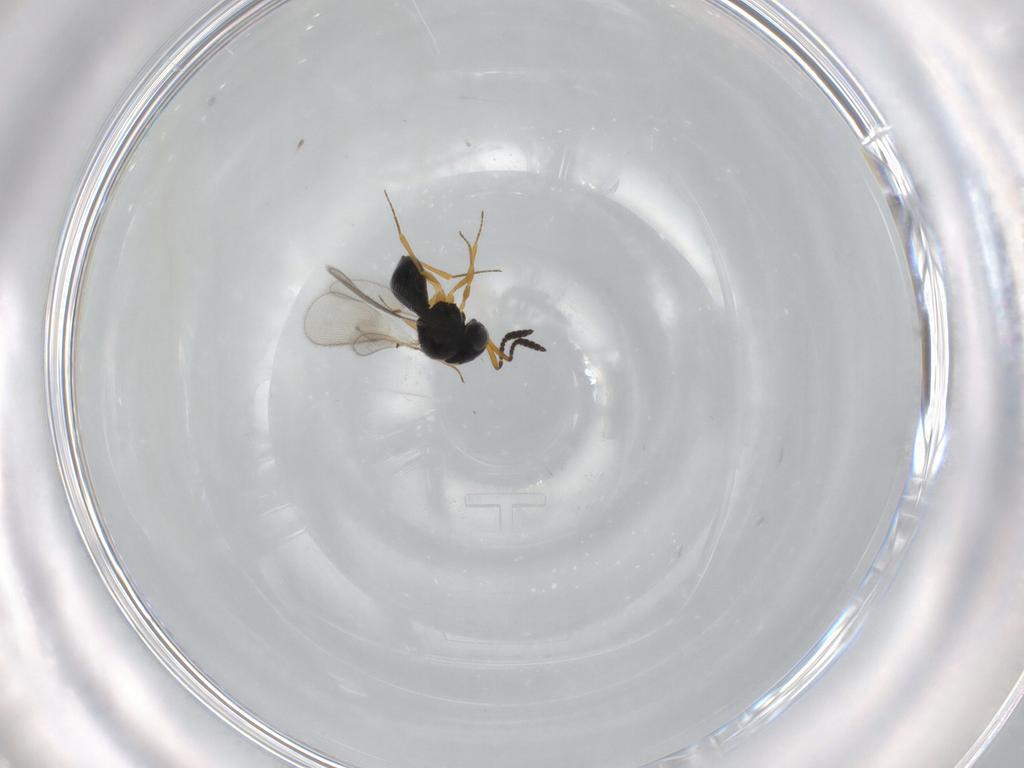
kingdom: Animalia
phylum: Arthropoda
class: Insecta
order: Hymenoptera
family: Scelionidae
